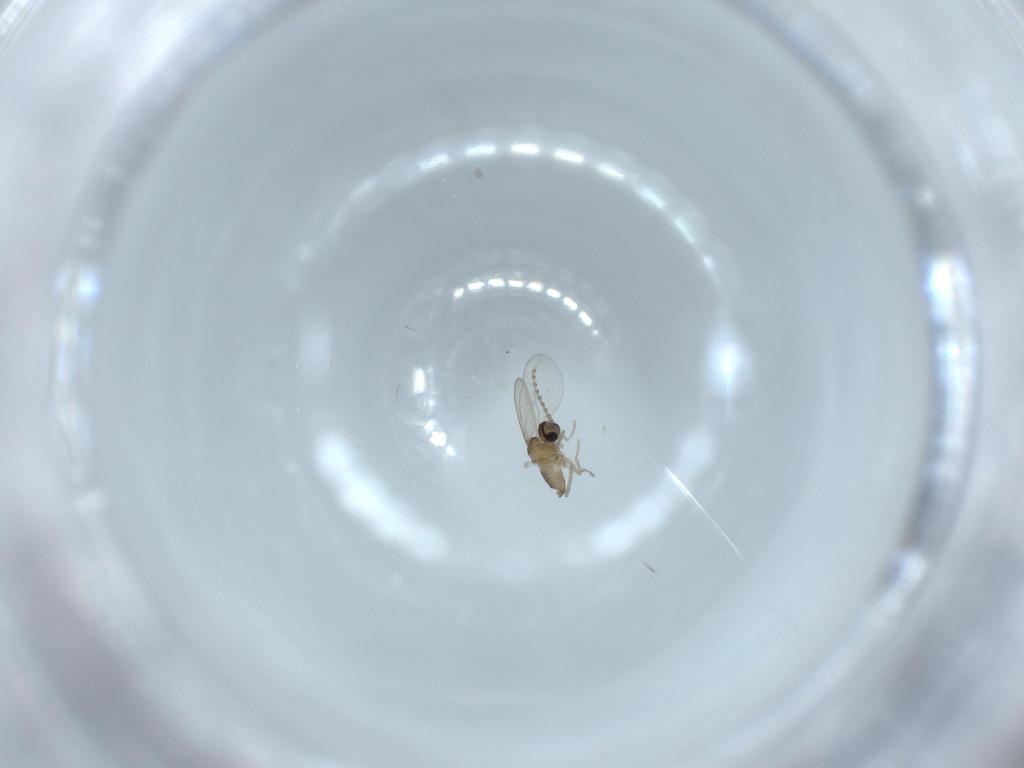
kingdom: Animalia
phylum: Arthropoda
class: Insecta
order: Diptera
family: Cecidomyiidae
